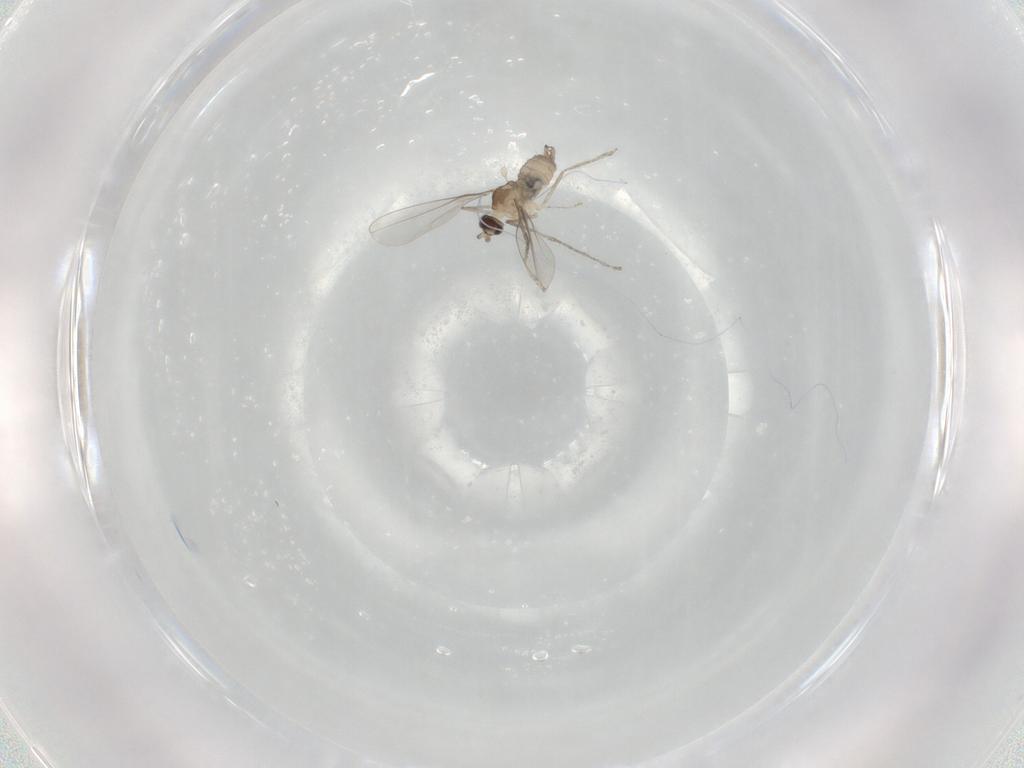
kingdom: Animalia
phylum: Arthropoda
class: Insecta
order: Diptera
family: Cecidomyiidae
